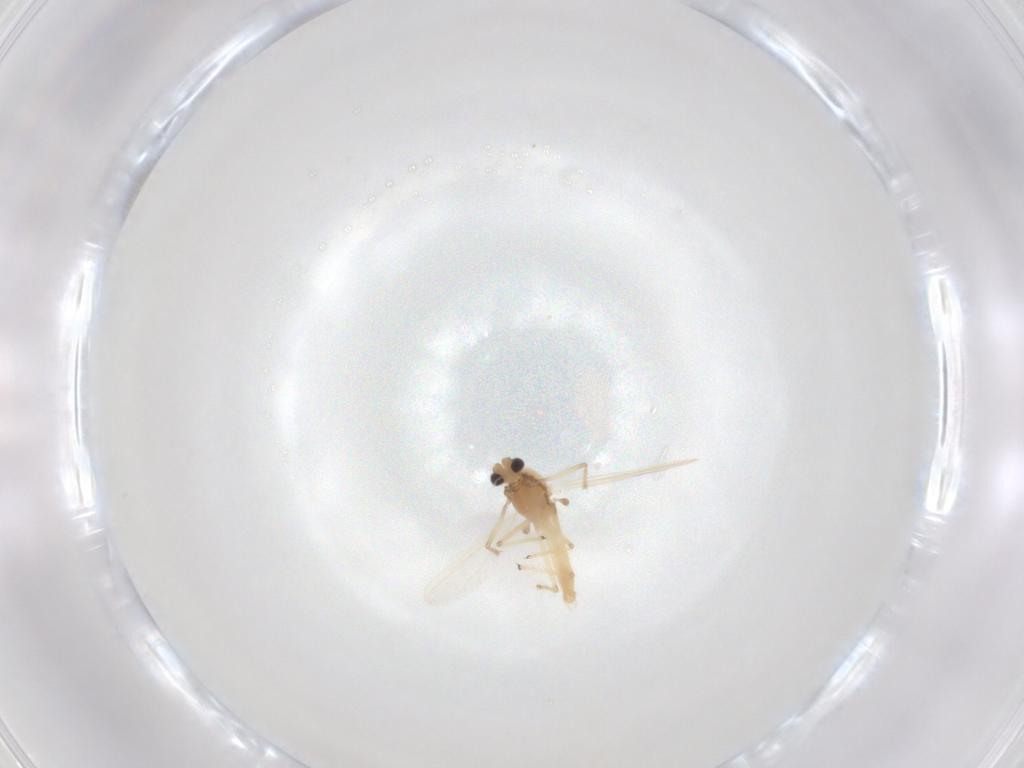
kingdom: Animalia
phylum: Arthropoda
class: Insecta
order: Diptera
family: Chironomidae
